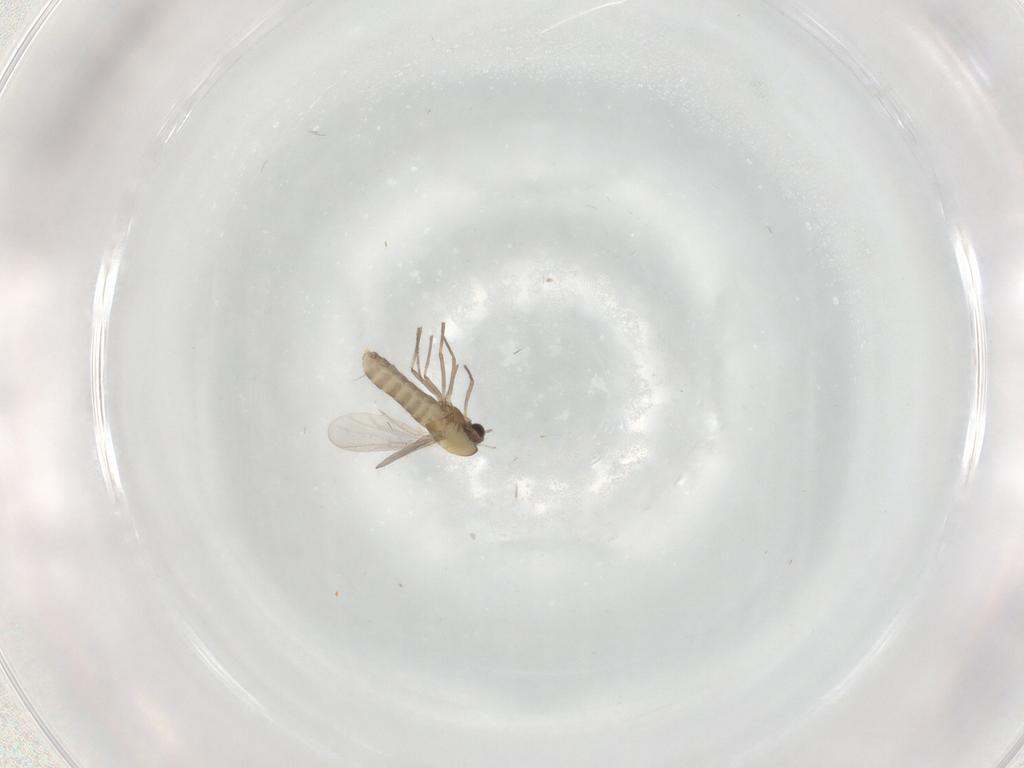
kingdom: Animalia
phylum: Arthropoda
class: Insecta
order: Diptera
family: Chironomidae
